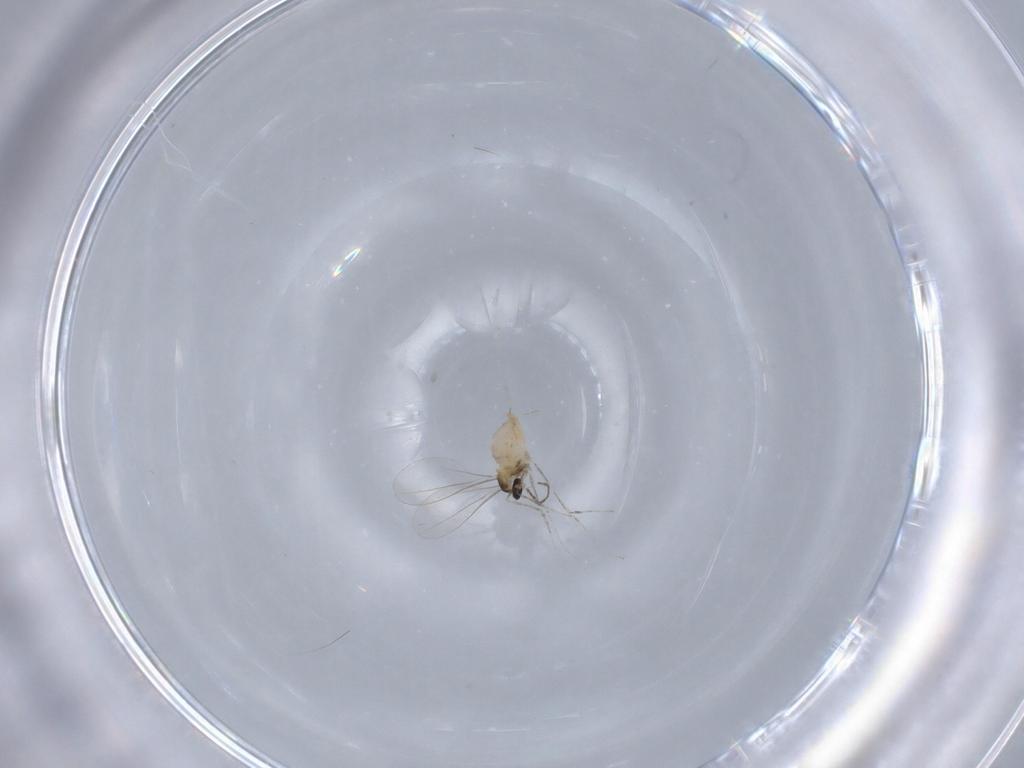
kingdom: Animalia
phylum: Arthropoda
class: Insecta
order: Diptera
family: Cecidomyiidae
